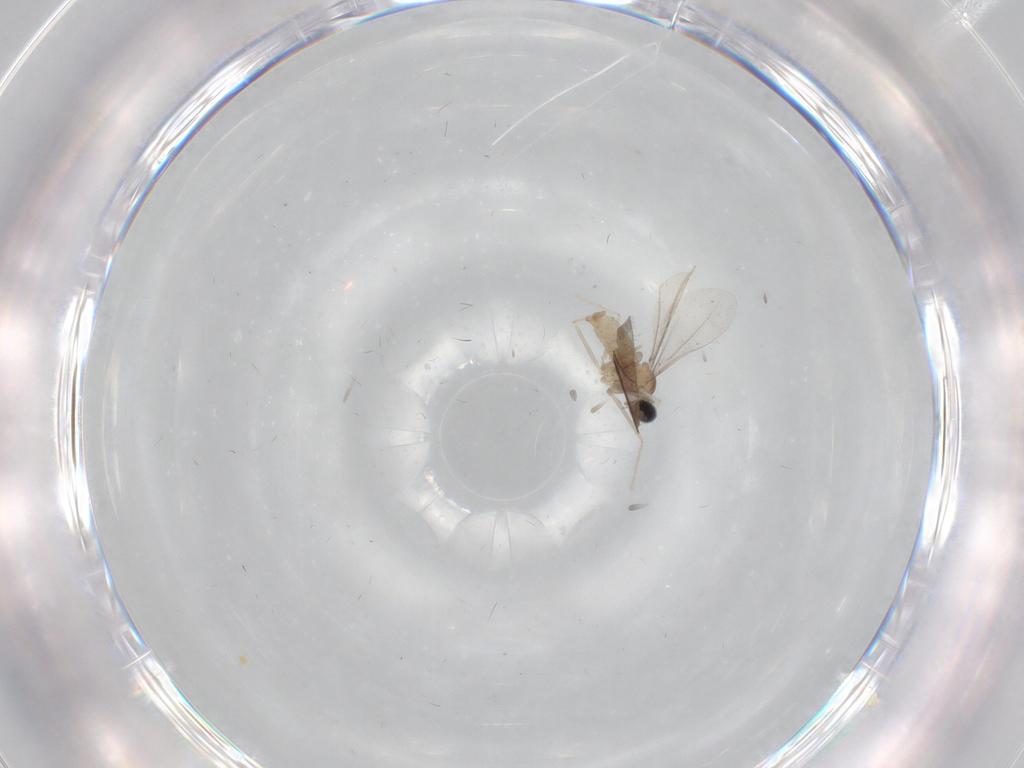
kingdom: Animalia
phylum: Arthropoda
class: Insecta
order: Diptera
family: Cecidomyiidae
